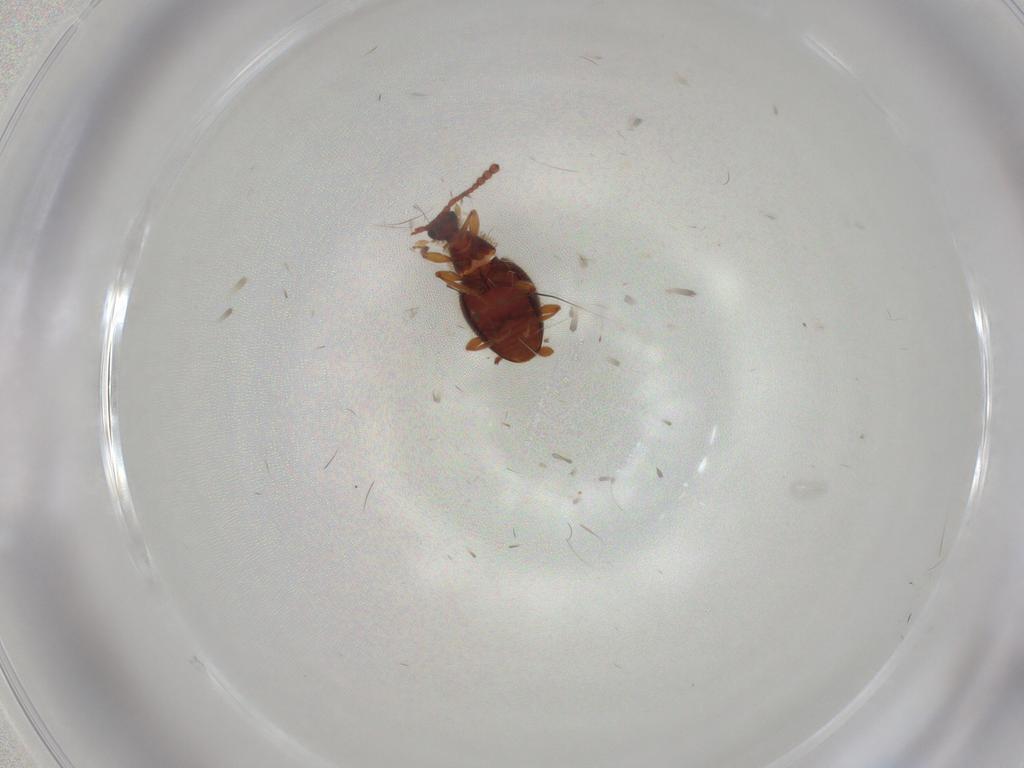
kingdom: Animalia
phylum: Arthropoda
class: Insecta
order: Coleoptera
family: Staphylinidae
